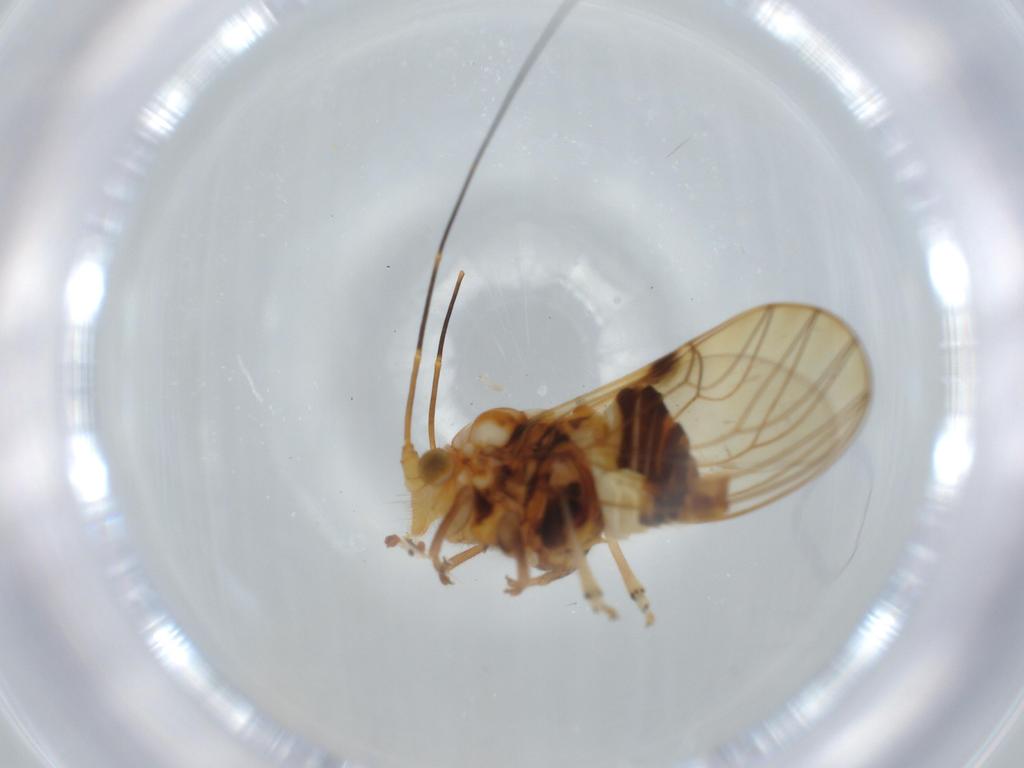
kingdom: Animalia
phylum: Arthropoda
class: Insecta
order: Hemiptera
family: Psyllidae
